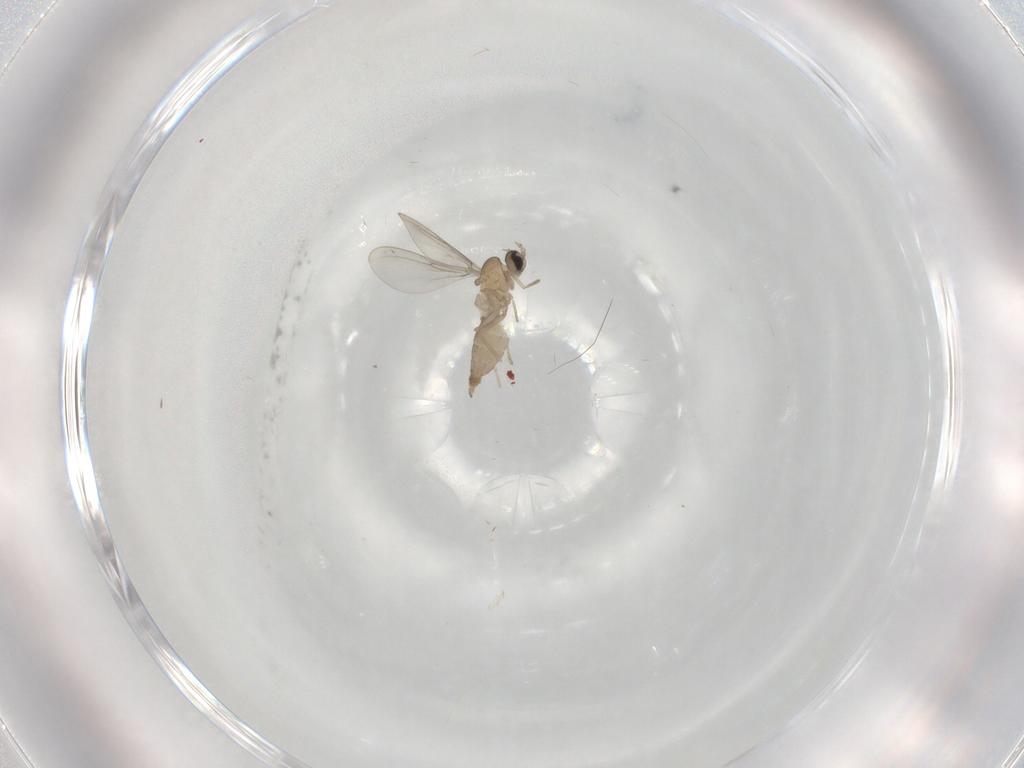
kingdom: Animalia
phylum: Arthropoda
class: Insecta
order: Diptera
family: Cecidomyiidae
